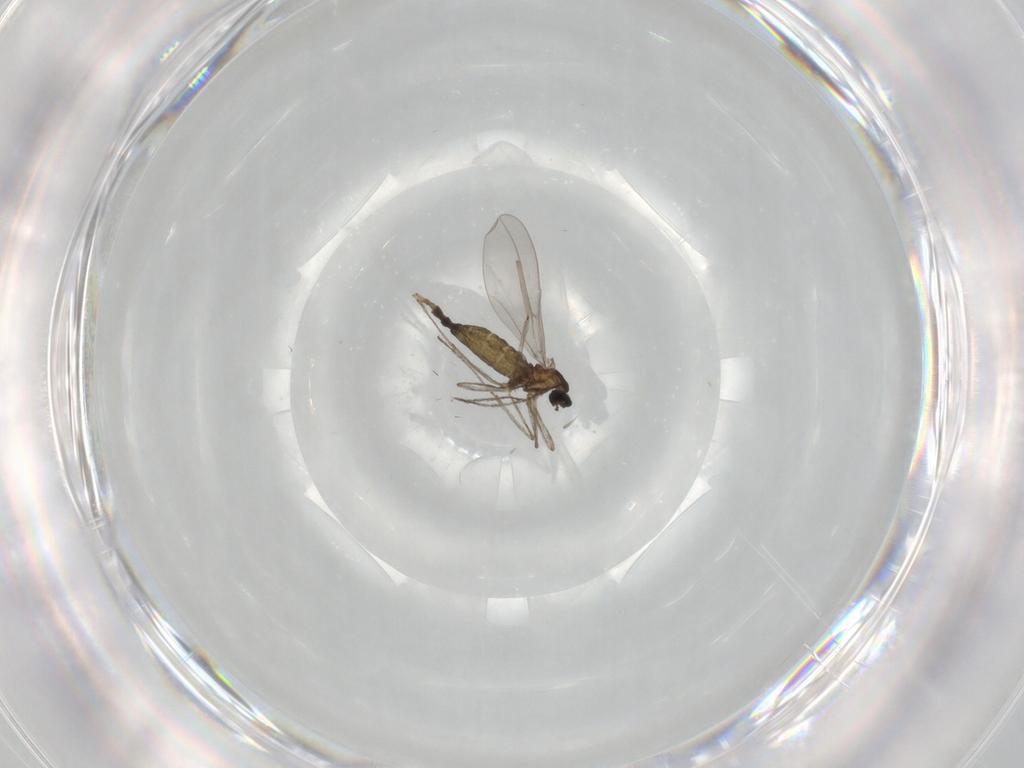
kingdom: Animalia
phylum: Arthropoda
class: Insecta
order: Diptera
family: Cecidomyiidae
